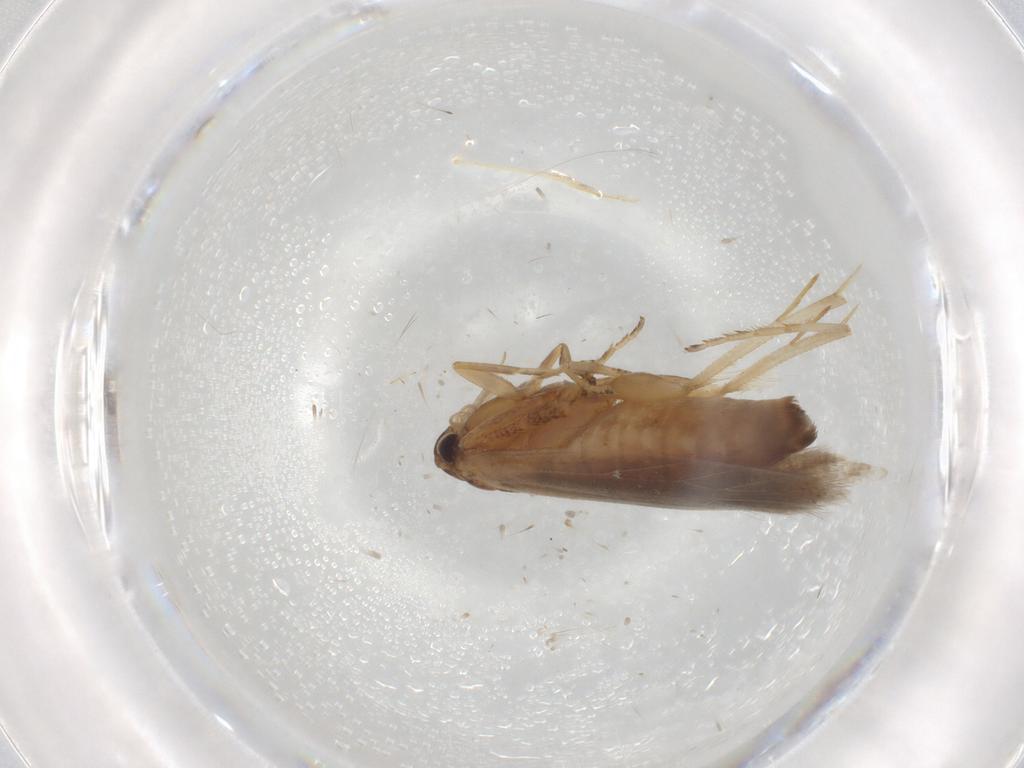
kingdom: Animalia
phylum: Arthropoda
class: Insecta
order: Lepidoptera
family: Gelechiidae
